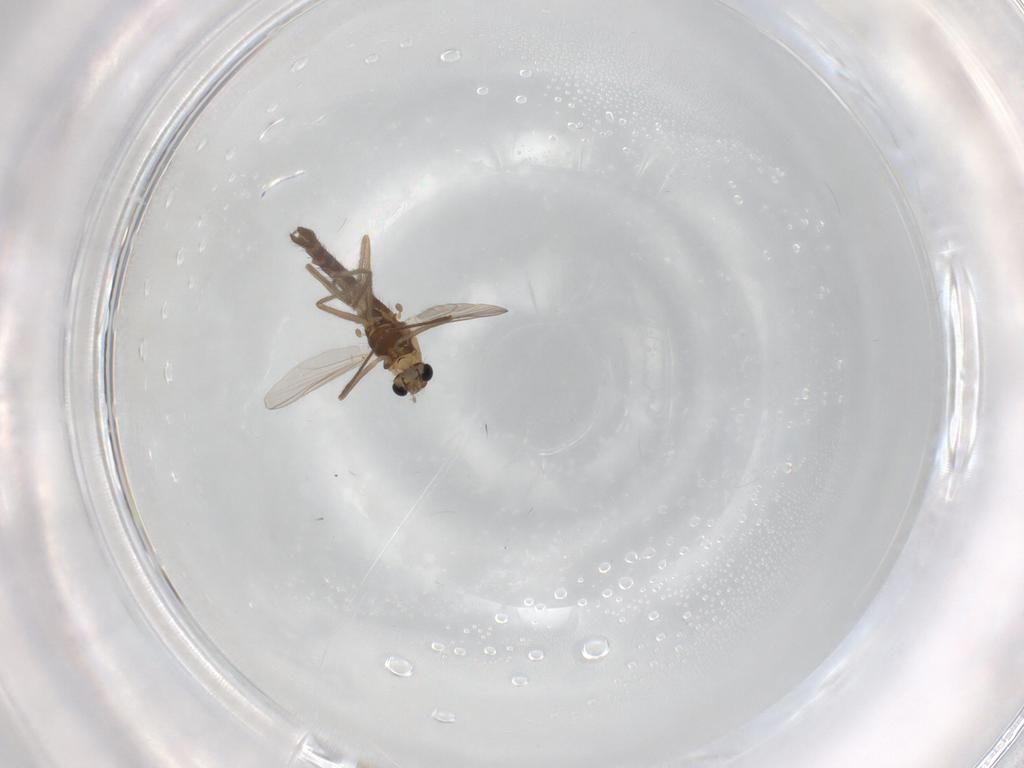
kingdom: Animalia
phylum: Arthropoda
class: Insecta
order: Diptera
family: Chironomidae
